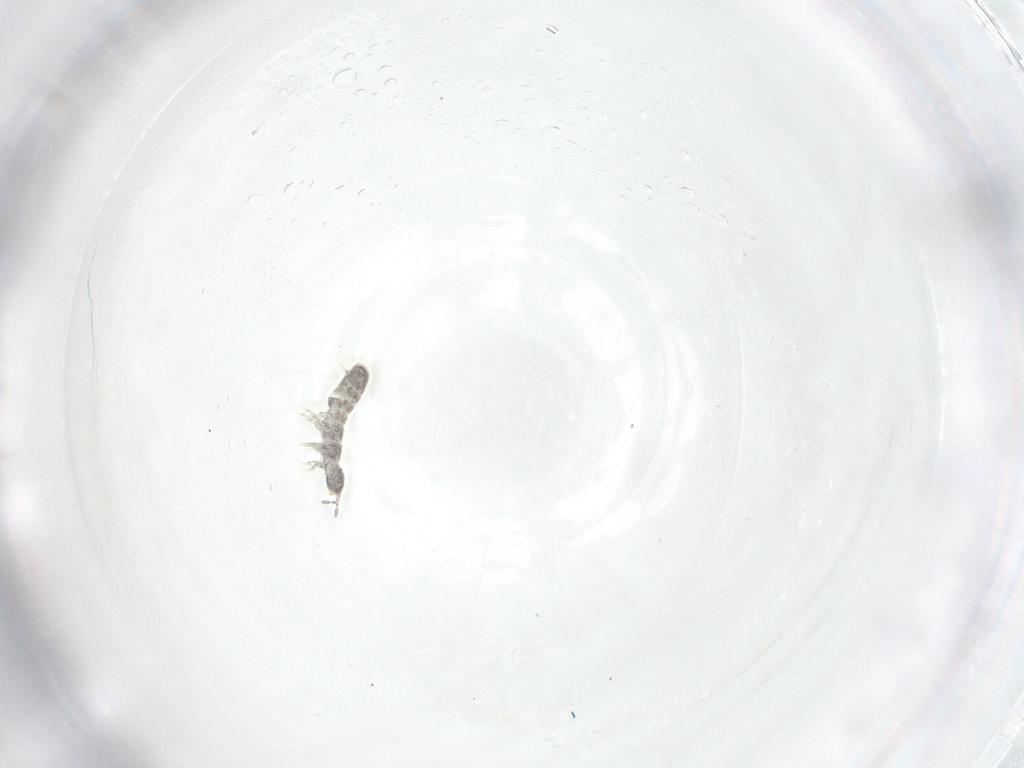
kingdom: Animalia
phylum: Arthropoda
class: Collembola
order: Entomobryomorpha
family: Isotomidae
